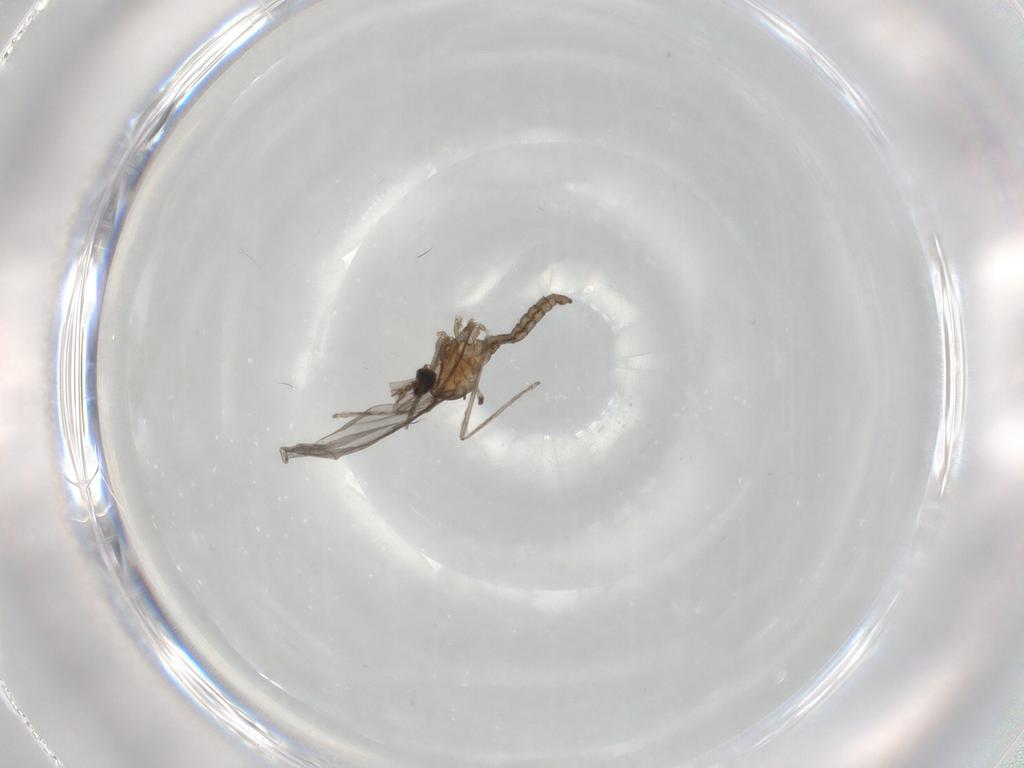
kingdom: Animalia
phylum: Arthropoda
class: Insecta
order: Diptera
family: Cecidomyiidae
